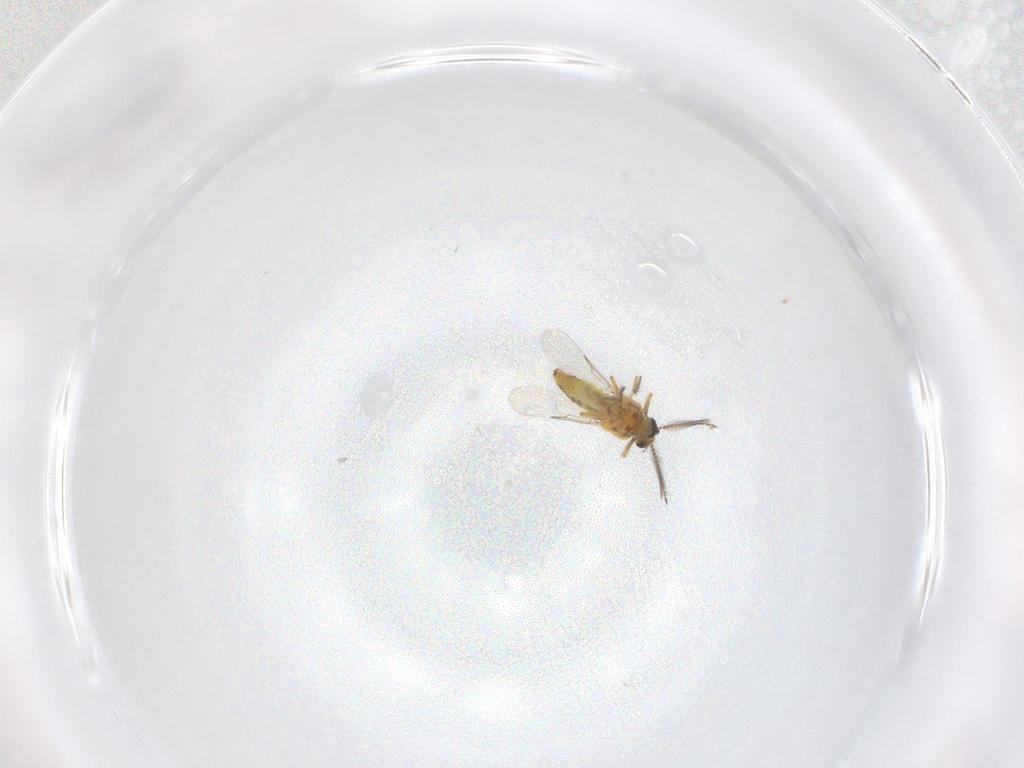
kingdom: Animalia
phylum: Arthropoda
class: Insecta
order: Diptera
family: Ceratopogonidae
